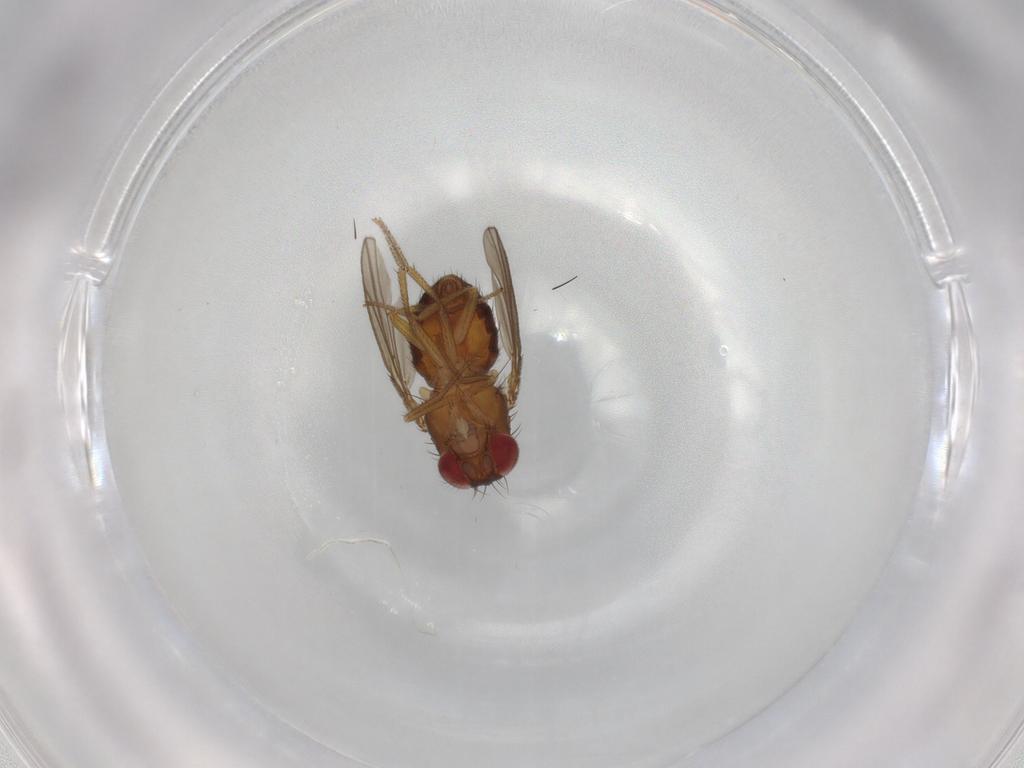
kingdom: Animalia
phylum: Arthropoda
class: Insecta
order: Diptera
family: Drosophilidae
